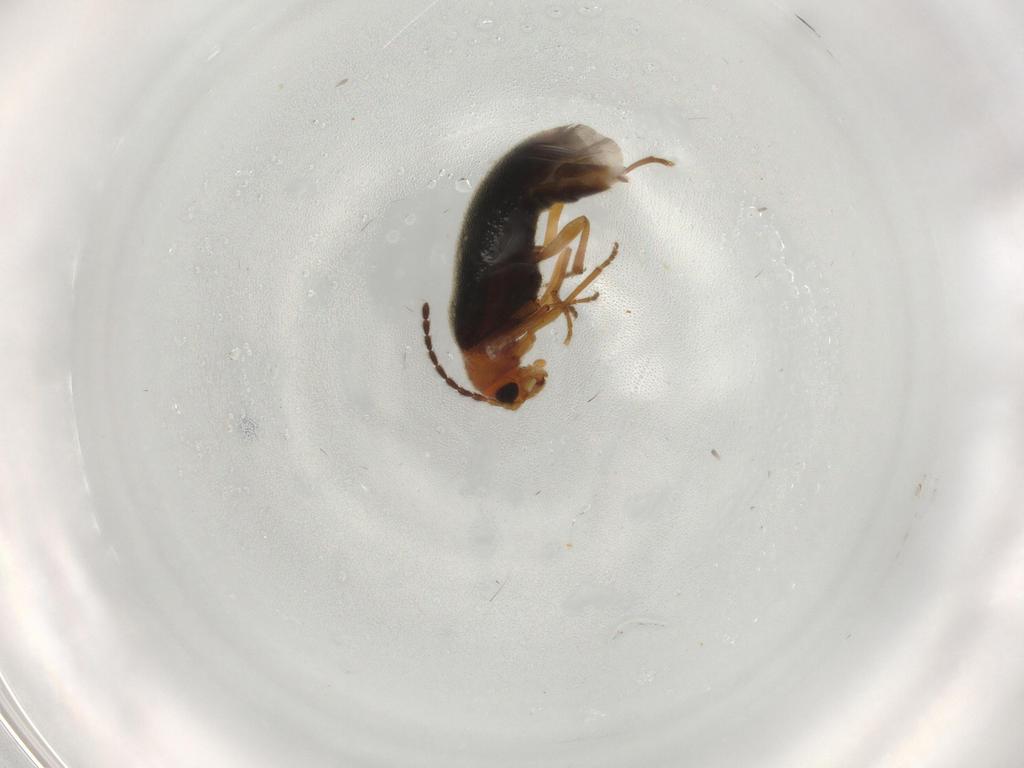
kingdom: Animalia
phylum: Arthropoda
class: Insecta
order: Coleoptera
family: Melandryidae
